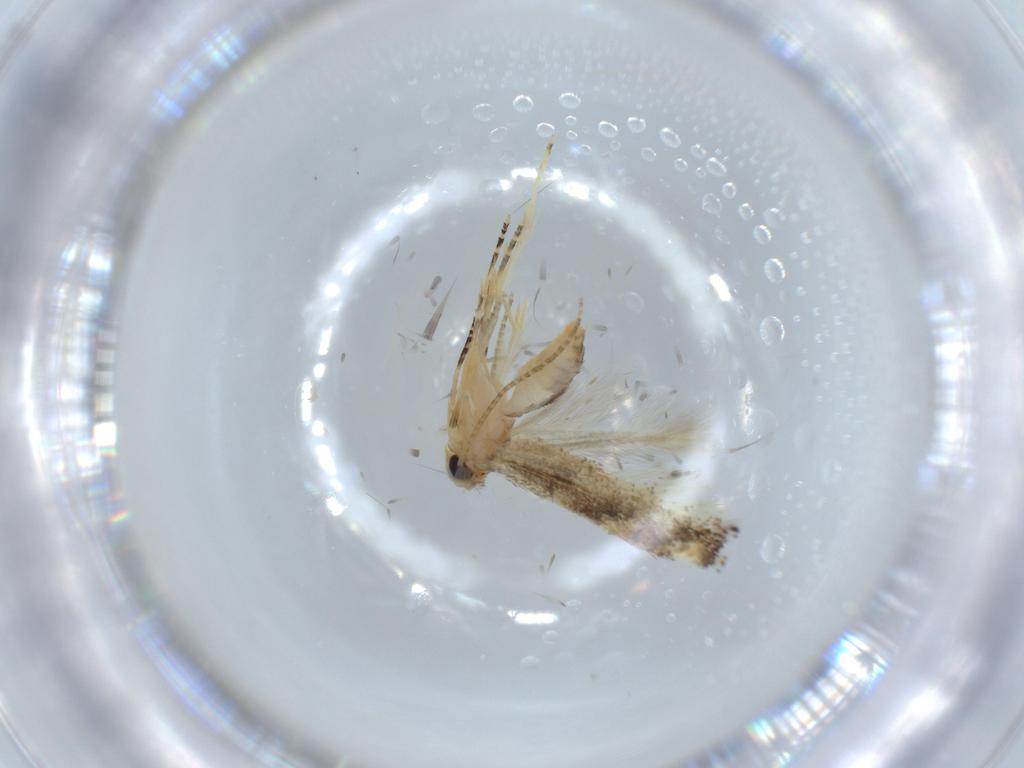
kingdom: Animalia
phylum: Arthropoda
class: Insecta
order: Lepidoptera
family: Bucculatricidae
